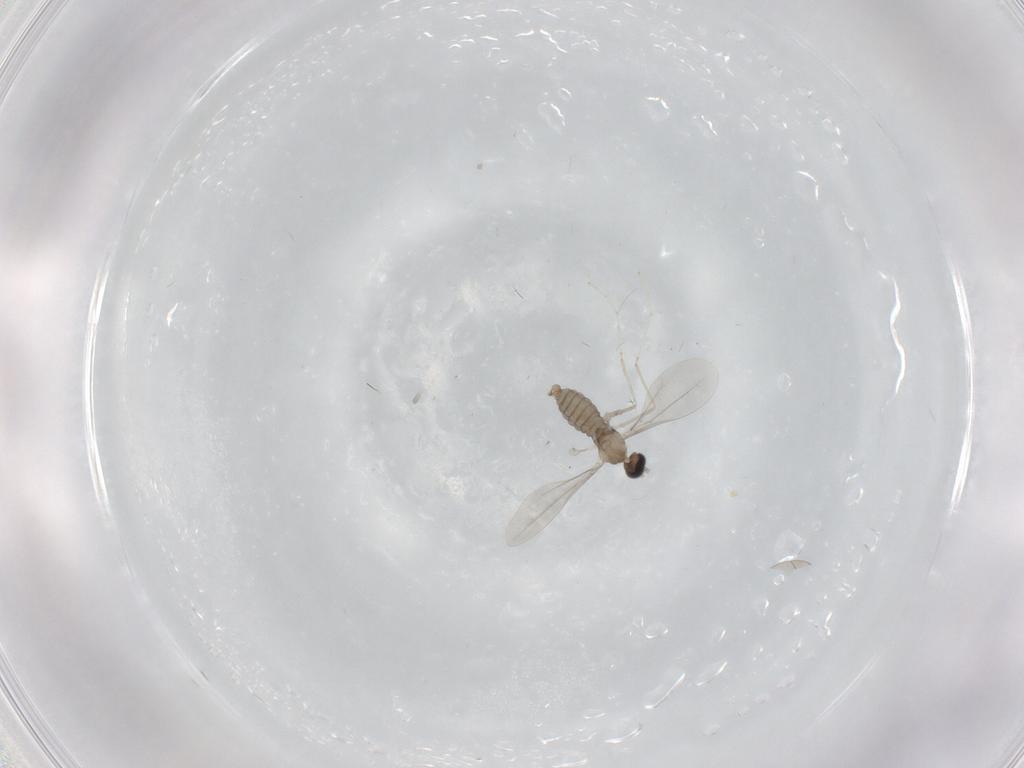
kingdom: Animalia
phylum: Arthropoda
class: Insecta
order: Diptera
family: Cecidomyiidae
